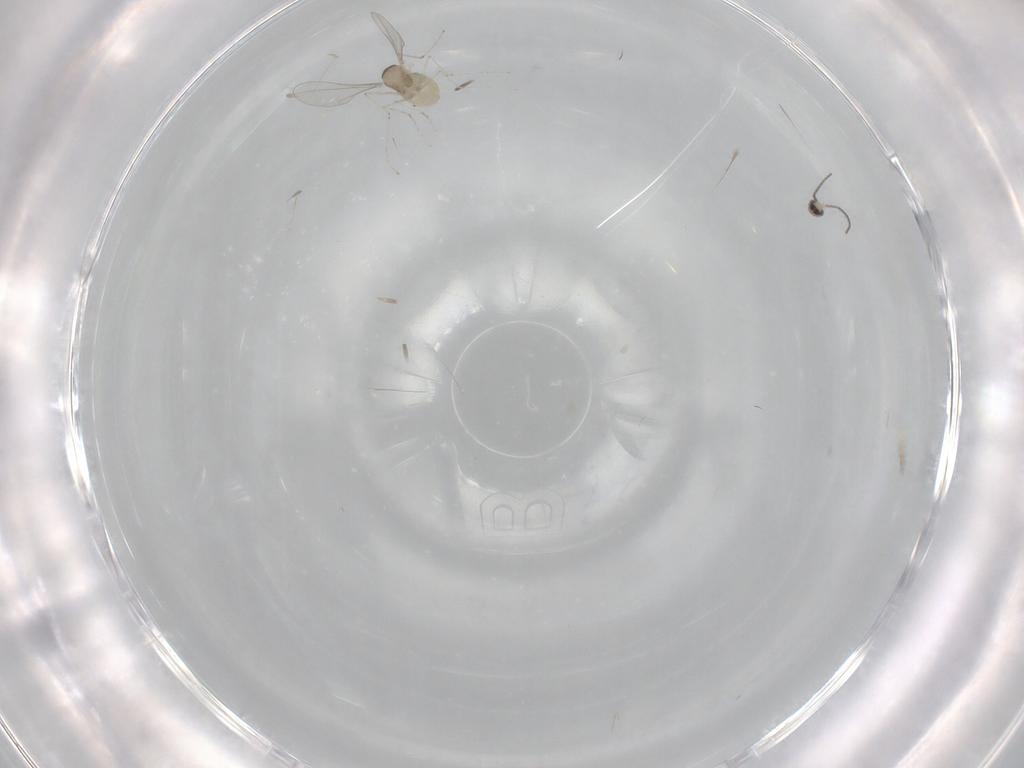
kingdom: Animalia
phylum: Arthropoda
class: Insecta
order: Diptera
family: Cecidomyiidae
